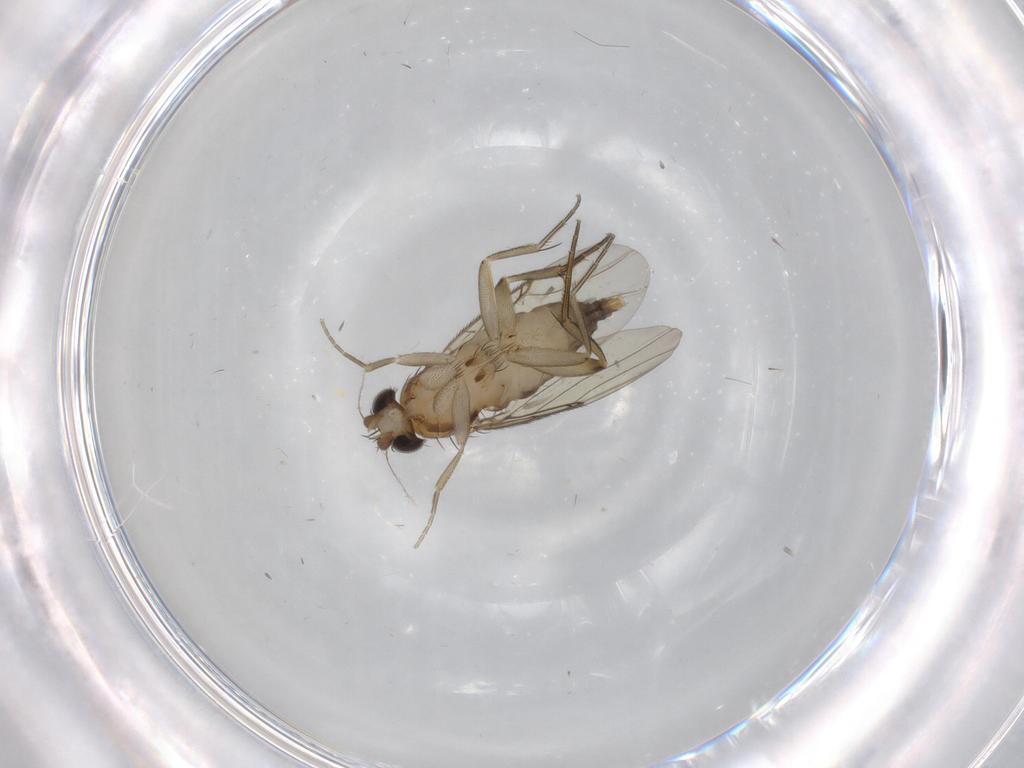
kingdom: Animalia
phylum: Arthropoda
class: Insecta
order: Diptera
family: Phoridae
